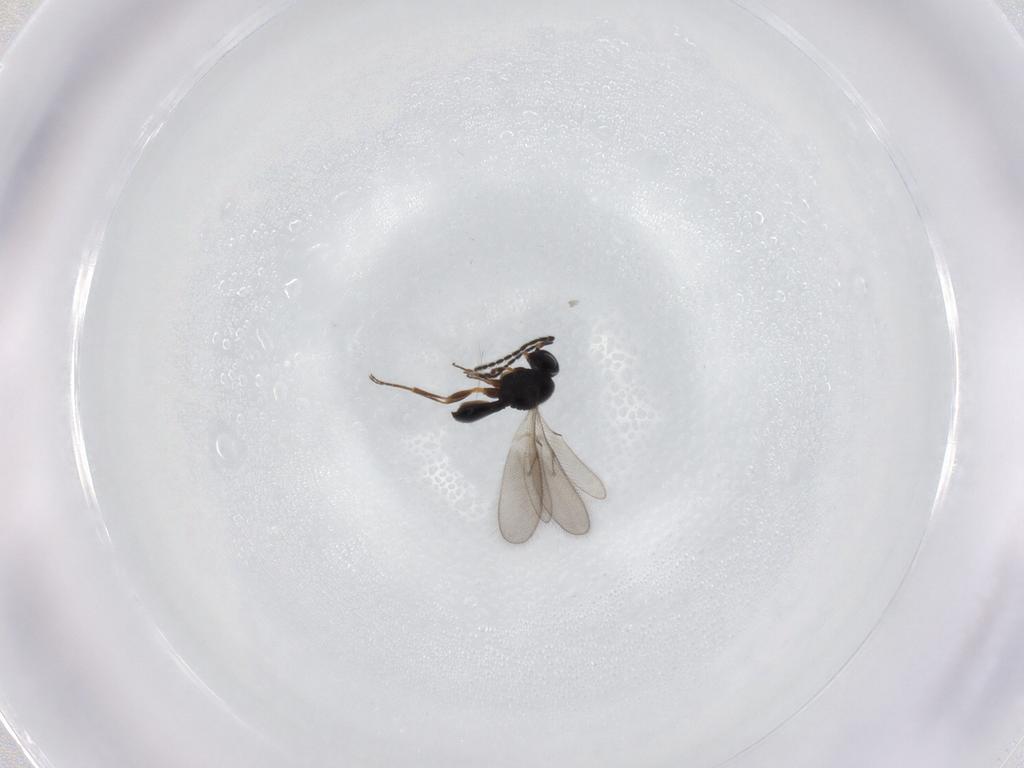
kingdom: Animalia
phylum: Arthropoda
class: Insecta
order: Hymenoptera
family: Scelionidae
